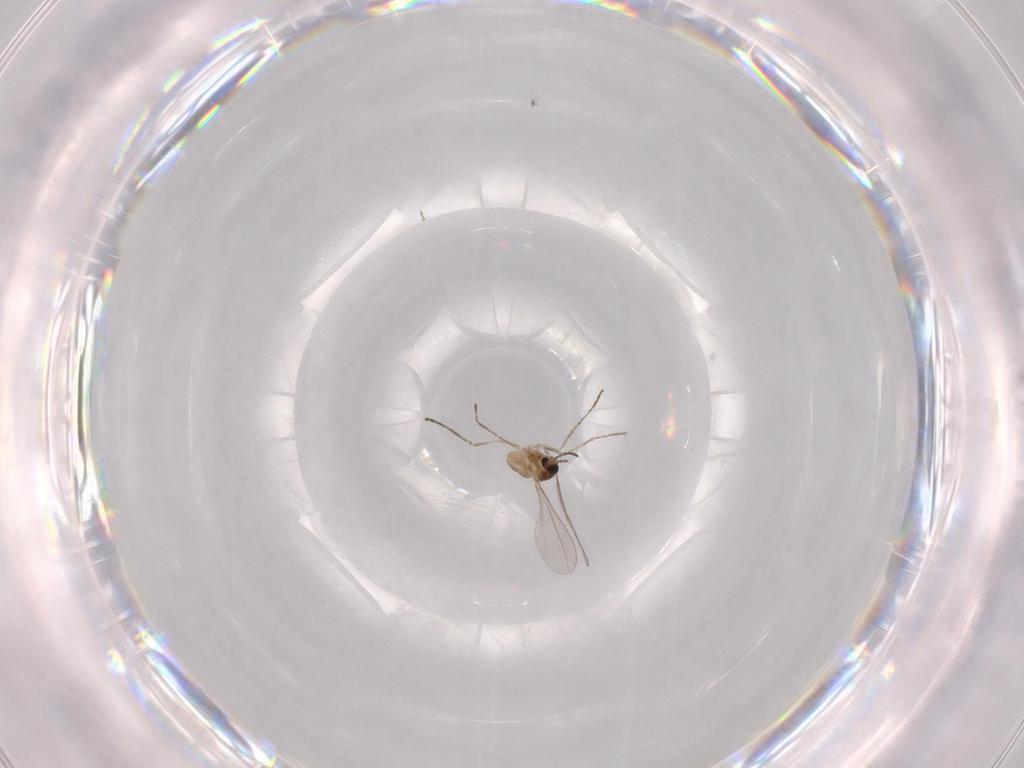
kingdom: Animalia
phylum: Arthropoda
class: Insecta
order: Diptera
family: Cecidomyiidae
